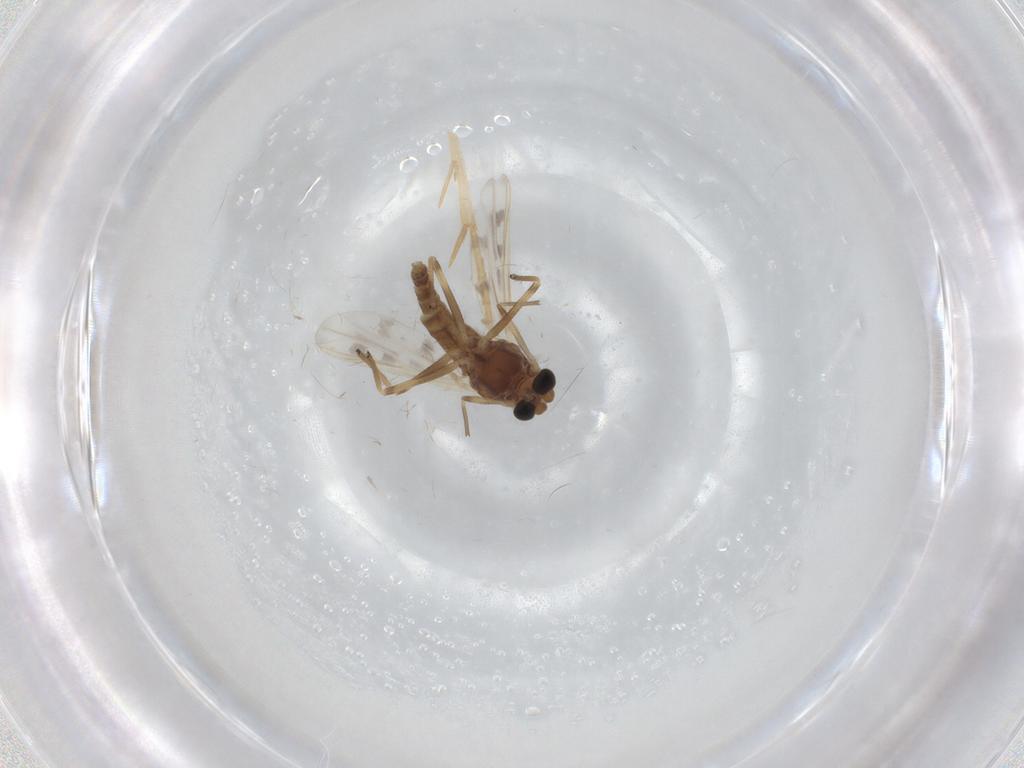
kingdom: Animalia
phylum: Arthropoda
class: Insecta
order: Diptera
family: Chironomidae
